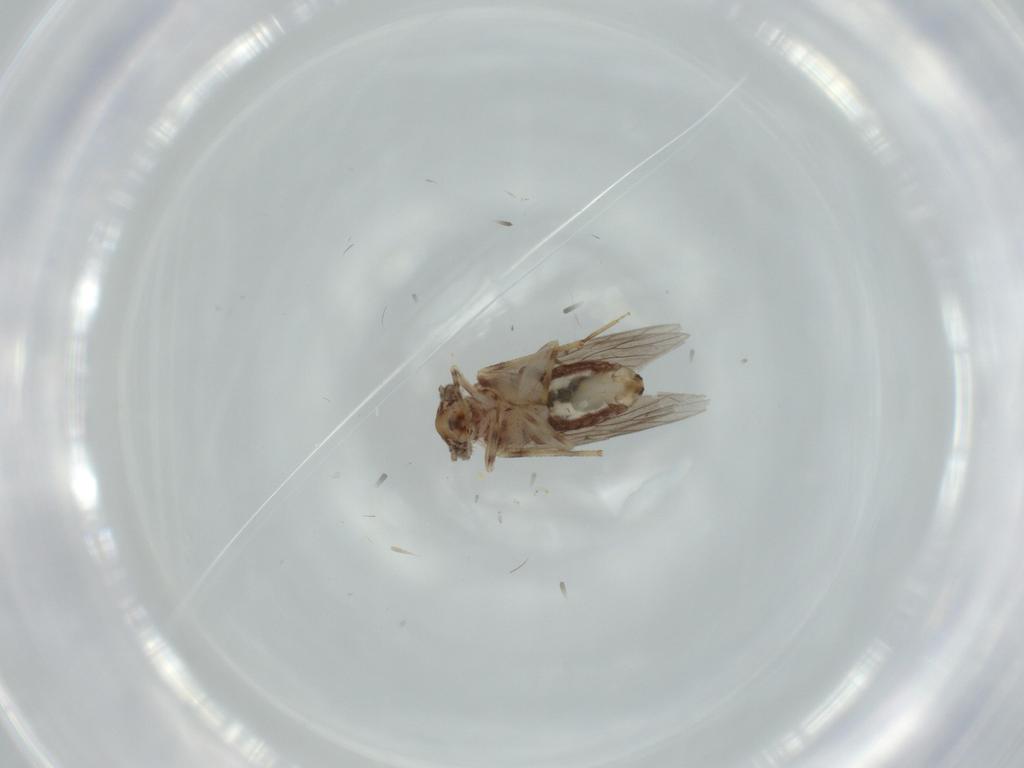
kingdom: Animalia
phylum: Arthropoda
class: Insecta
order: Psocodea
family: Lepidopsocidae
